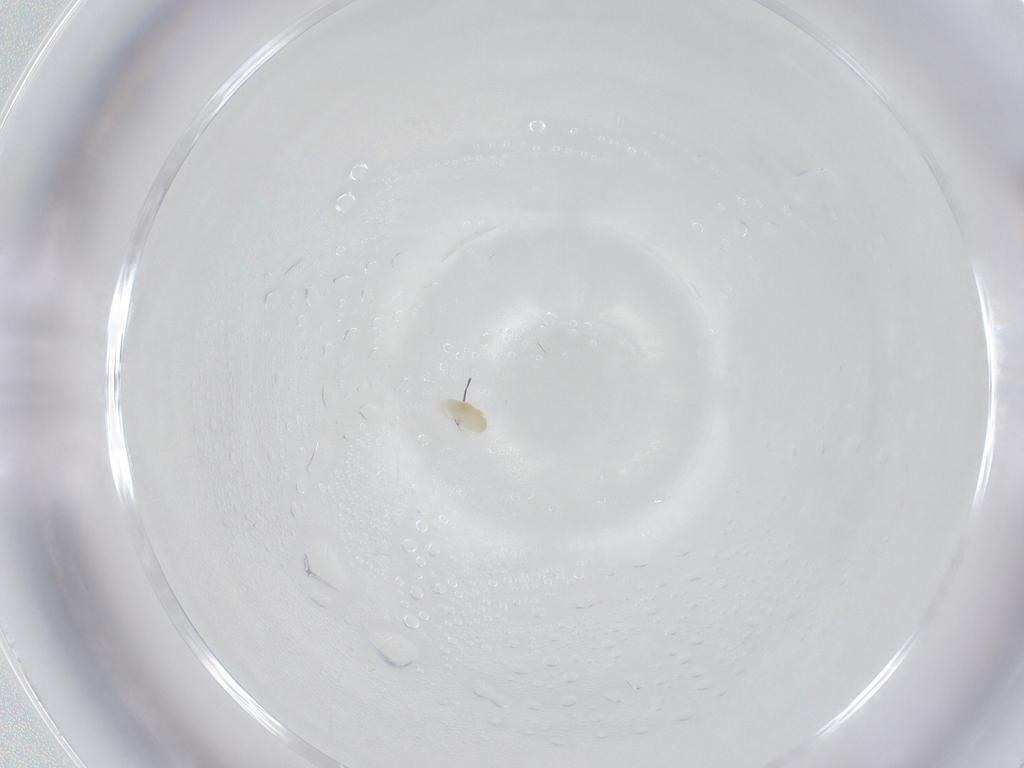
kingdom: Animalia
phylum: Arthropoda
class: Arachnida
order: Trombidiformes
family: Eupodidae
